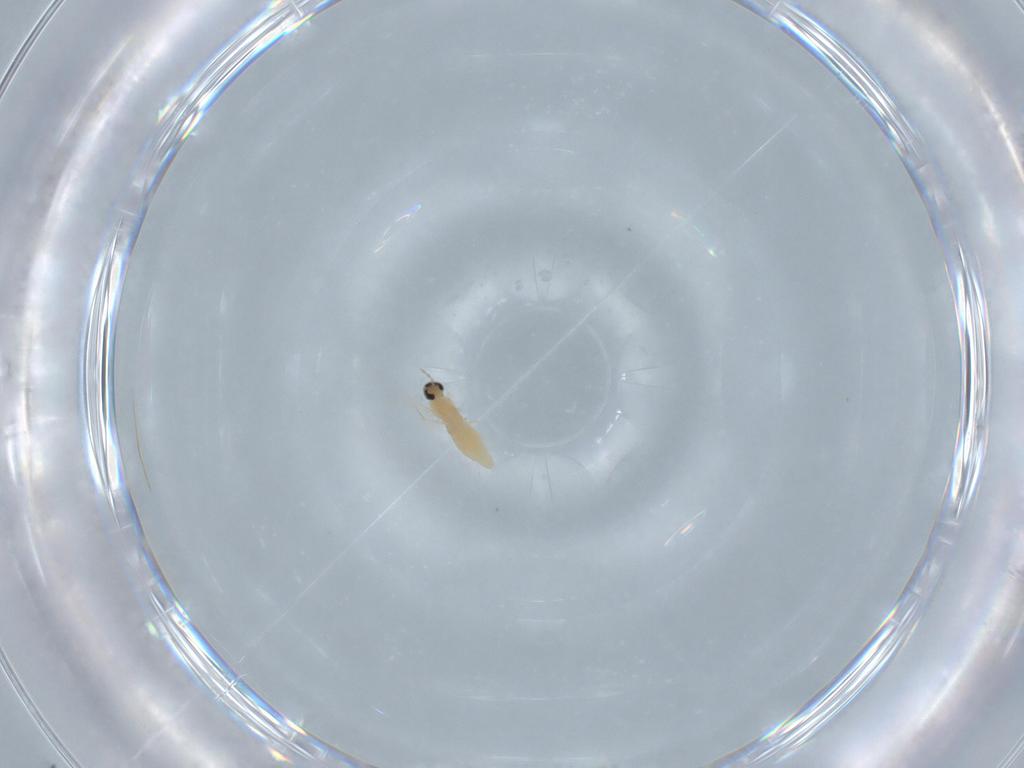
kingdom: Animalia
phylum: Arthropoda
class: Insecta
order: Diptera
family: Cecidomyiidae
